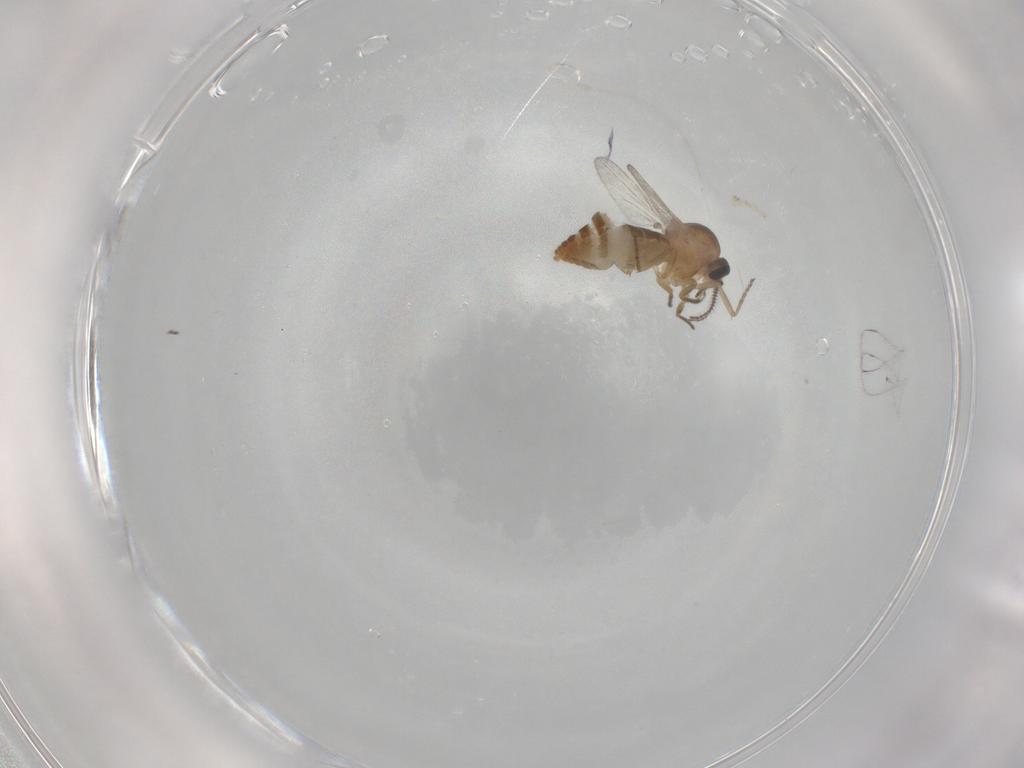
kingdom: Animalia
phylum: Arthropoda
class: Insecta
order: Diptera
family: Ceratopogonidae
